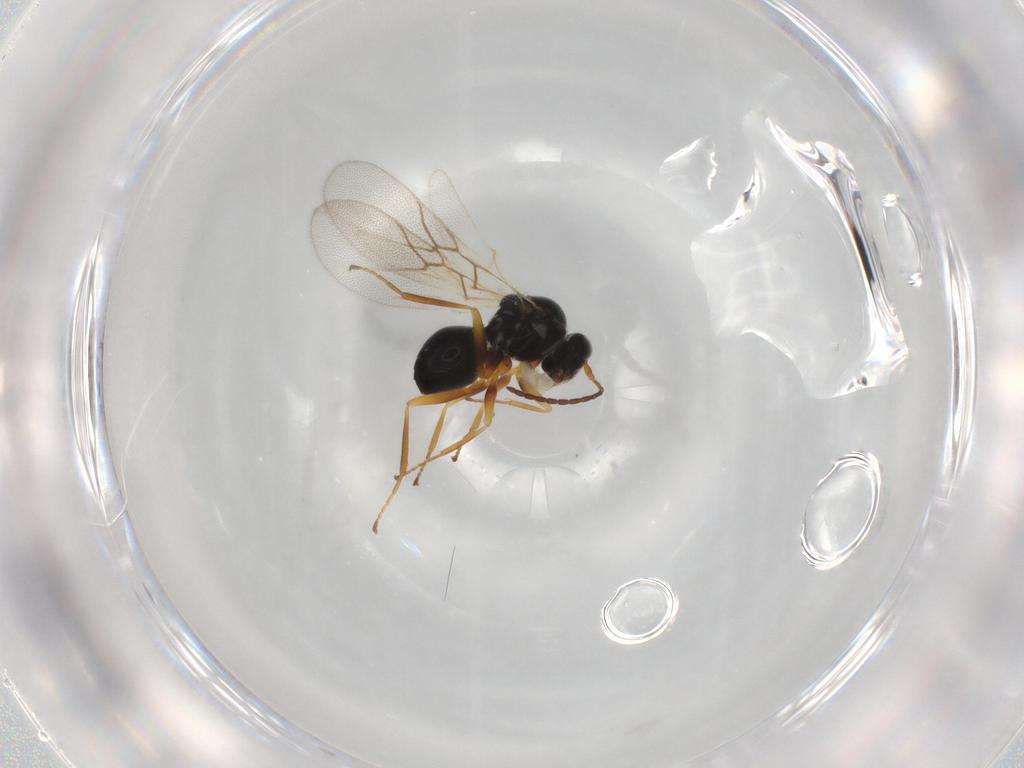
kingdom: Animalia
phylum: Arthropoda
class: Insecta
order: Hymenoptera
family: Figitidae
